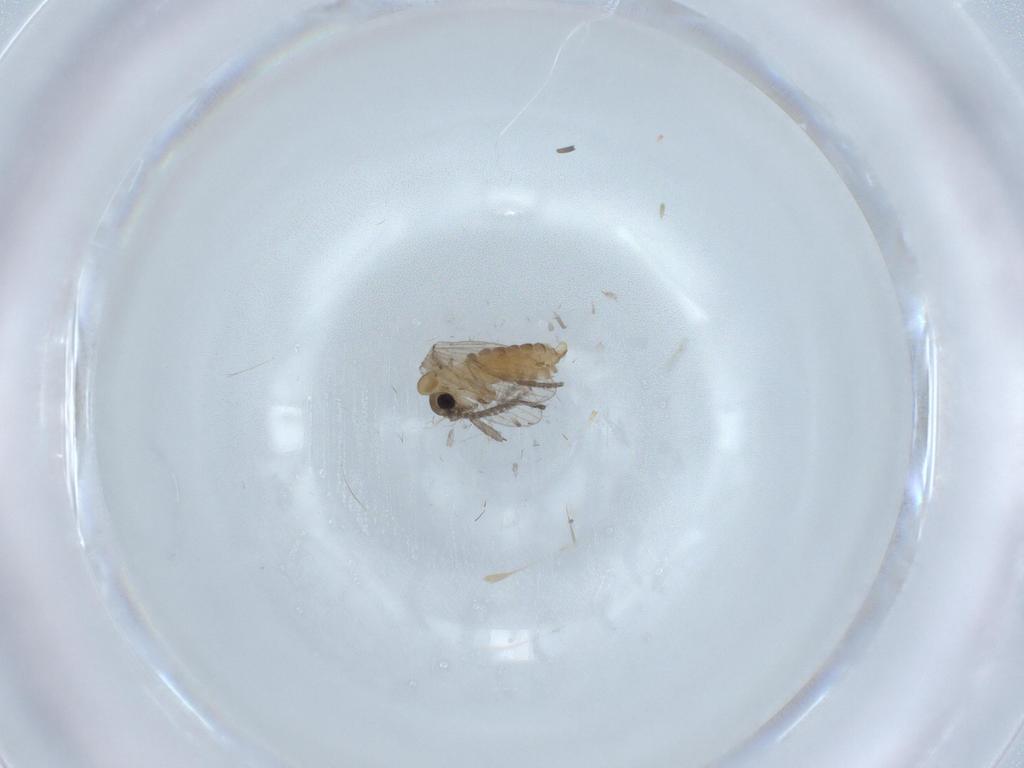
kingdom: Animalia
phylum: Arthropoda
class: Insecta
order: Diptera
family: Psychodidae
